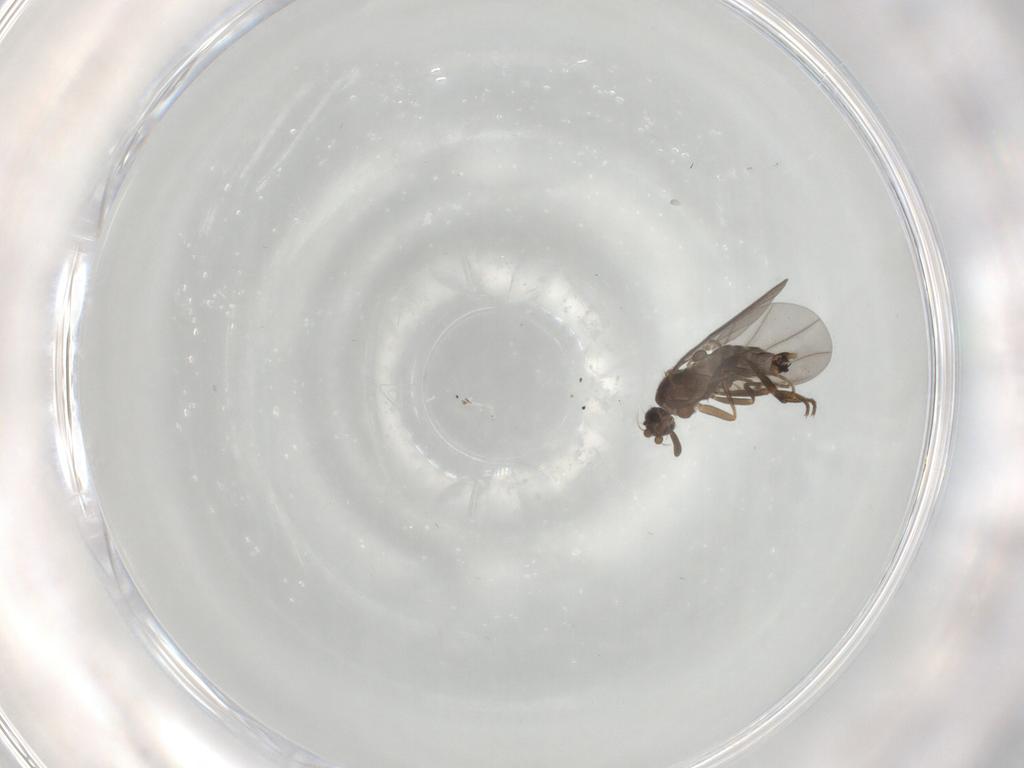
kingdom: Animalia
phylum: Arthropoda
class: Insecta
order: Diptera
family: Sciaridae
